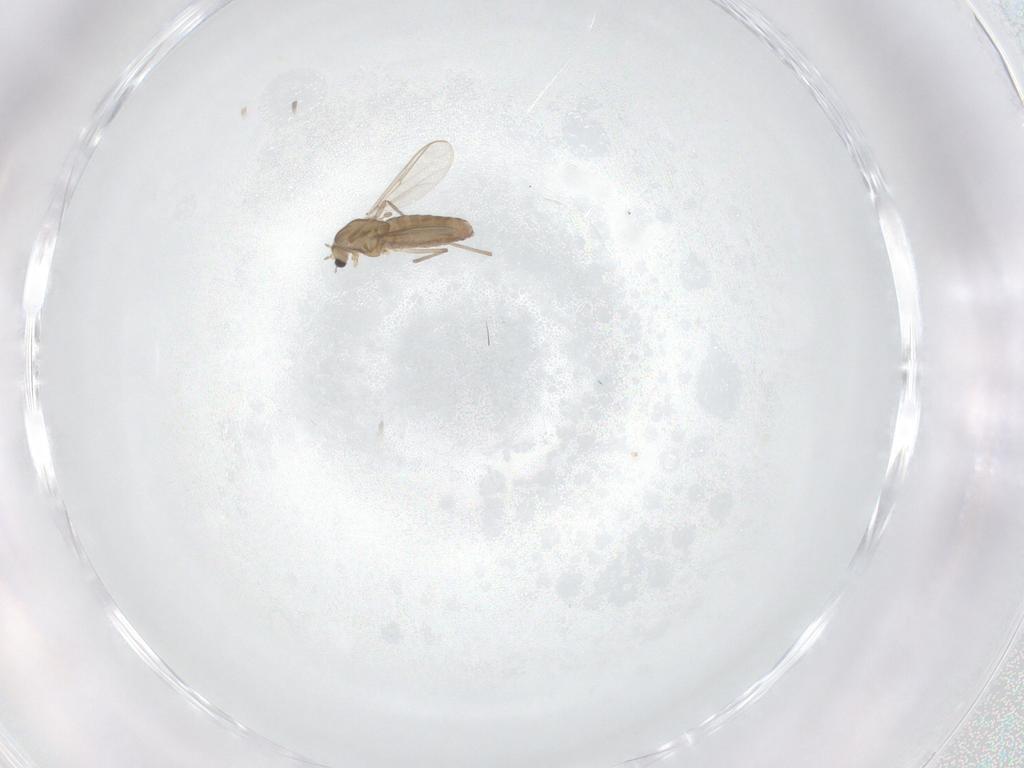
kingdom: Animalia
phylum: Arthropoda
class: Insecta
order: Diptera
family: Chironomidae
